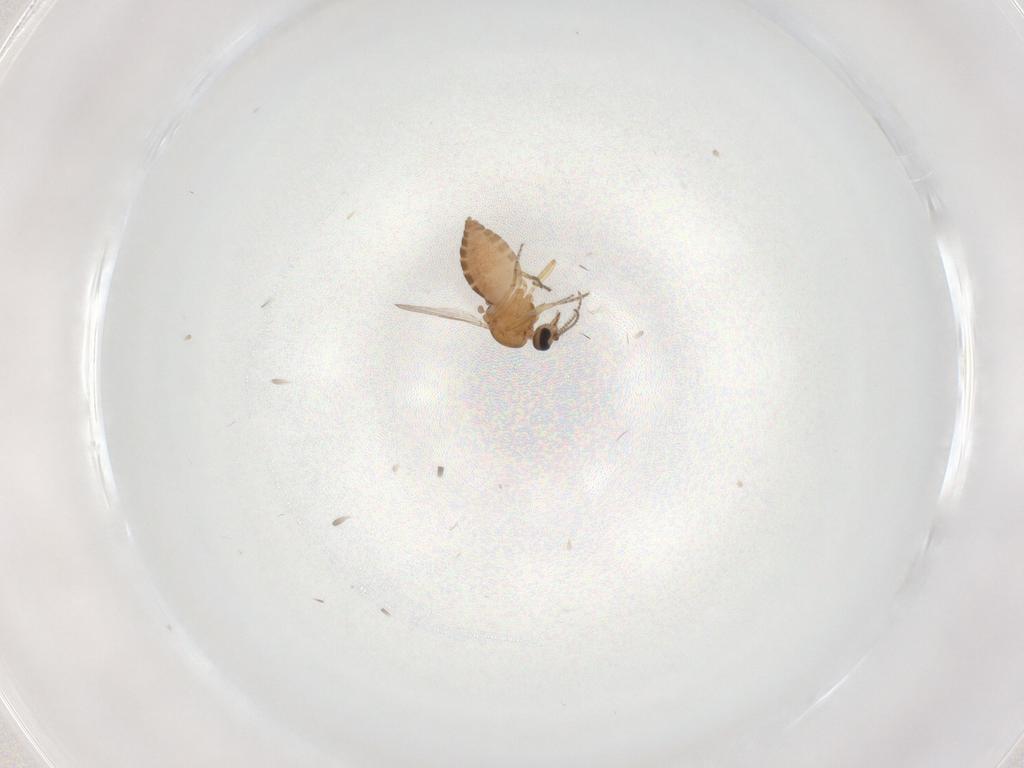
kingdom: Animalia
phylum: Arthropoda
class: Insecta
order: Diptera
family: Ceratopogonidae
